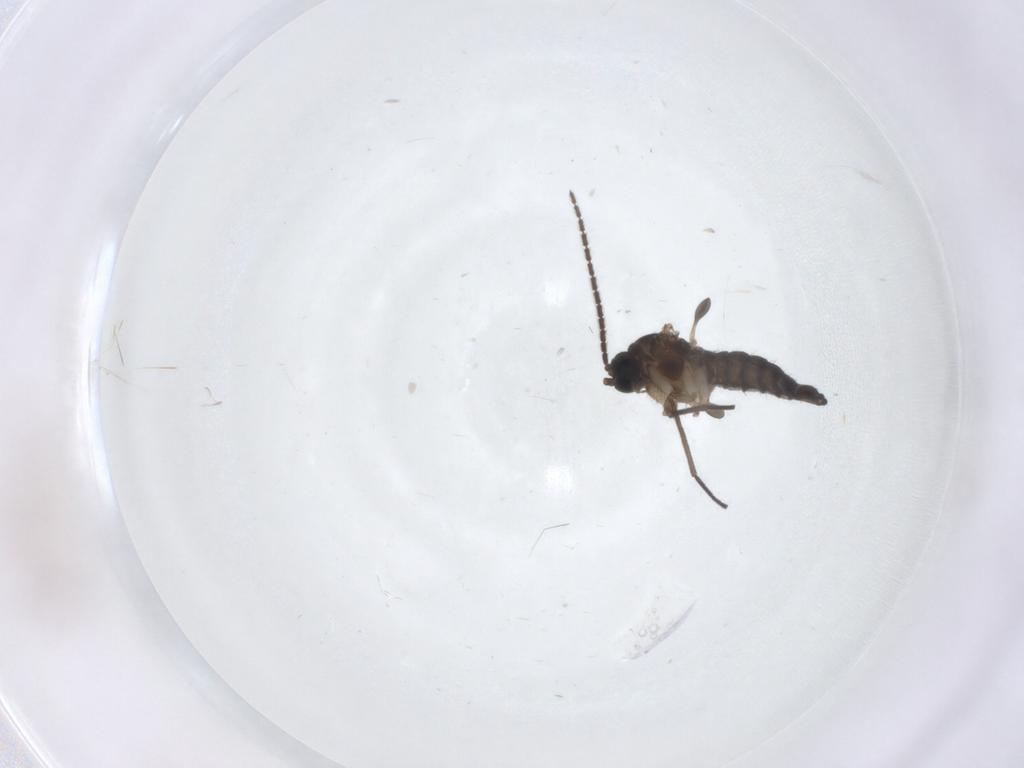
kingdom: Animalia
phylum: Arthropoda
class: Insecta
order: Diptera
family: Sciaridae
